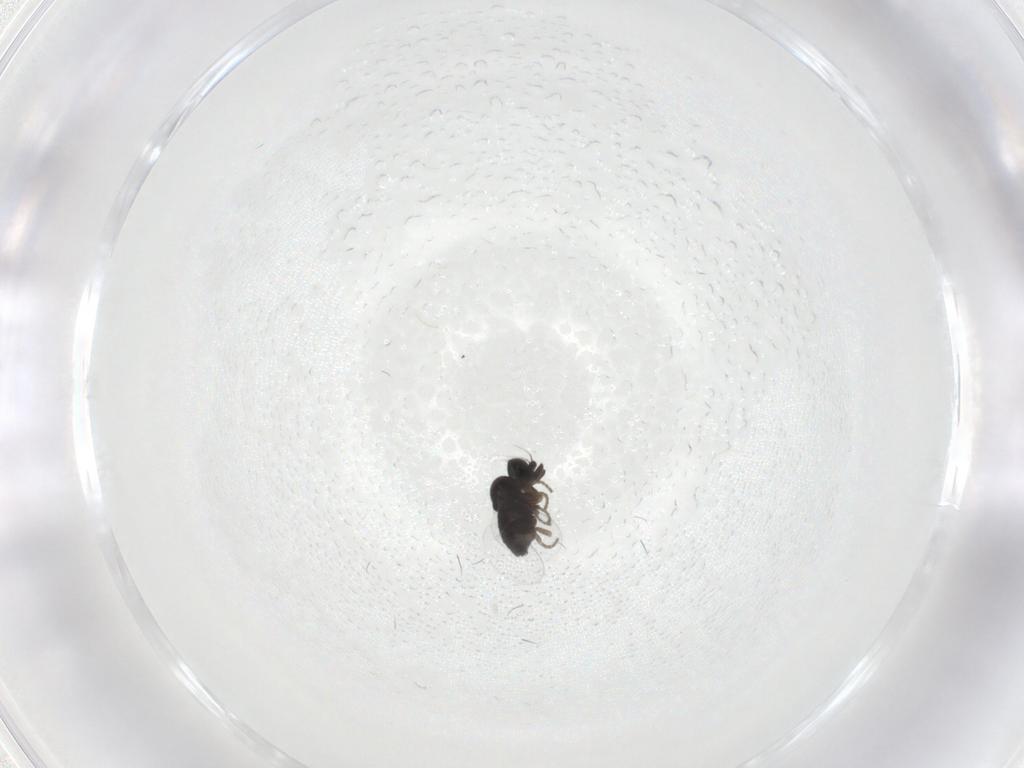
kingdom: Animalia
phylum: Arthropoda
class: Insecta
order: Diptera
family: Phoridae
